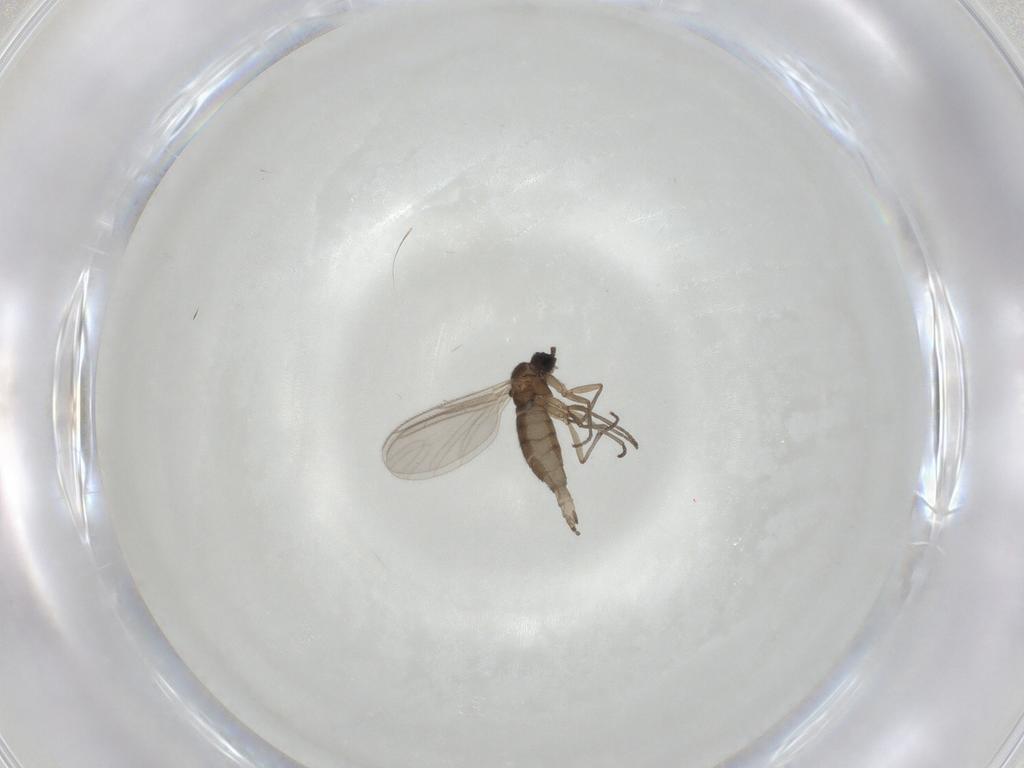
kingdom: Animalia
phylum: Arthropoda
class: Insecta
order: Diptera
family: Sciaridae
